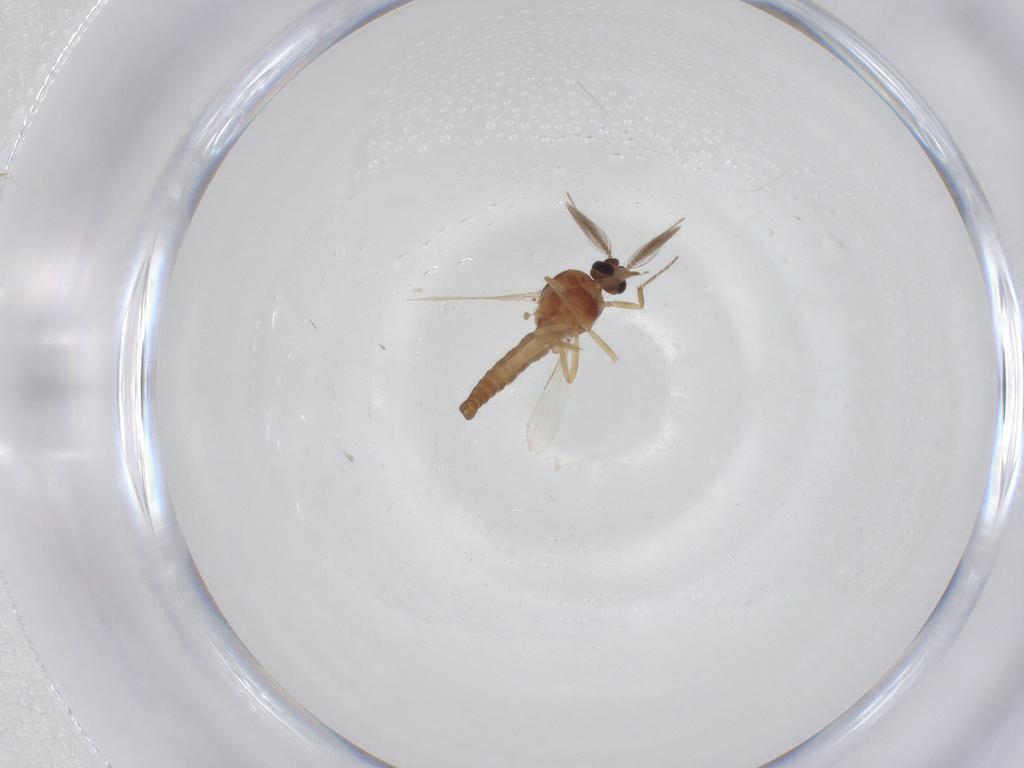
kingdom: Animalia
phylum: Arthropoda
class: Insecta
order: Diptera
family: Ceratopogonidae
